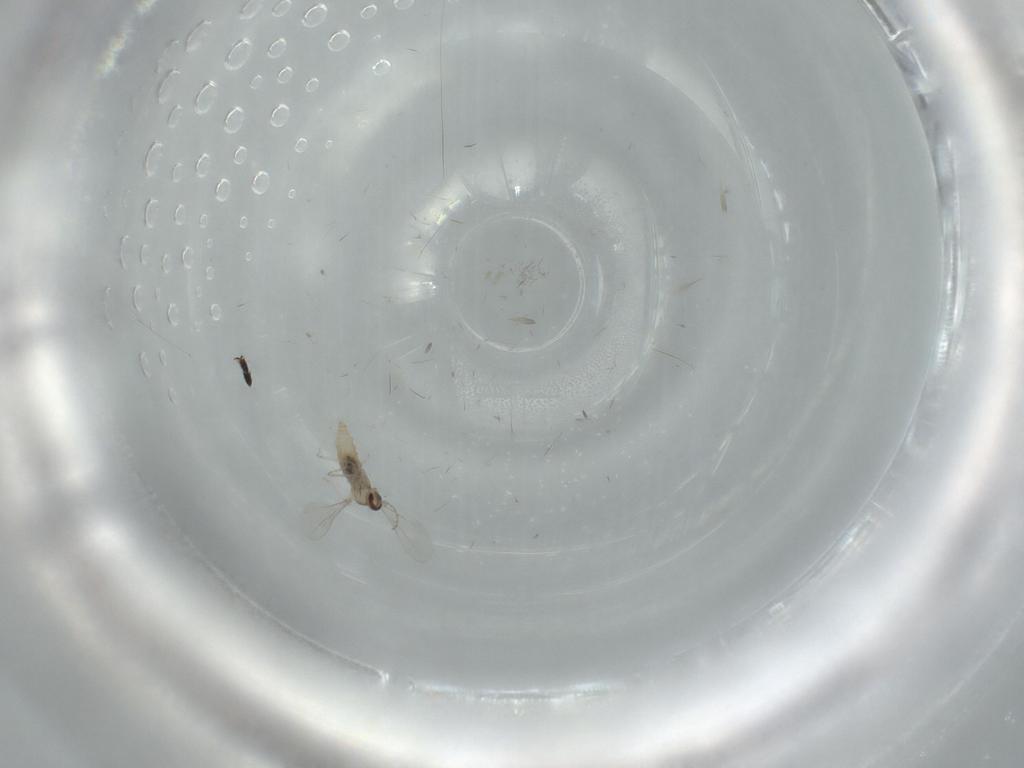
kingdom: Animalia
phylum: Arthropoda
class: Insecta
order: Diptera
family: Cecidomyiidae
